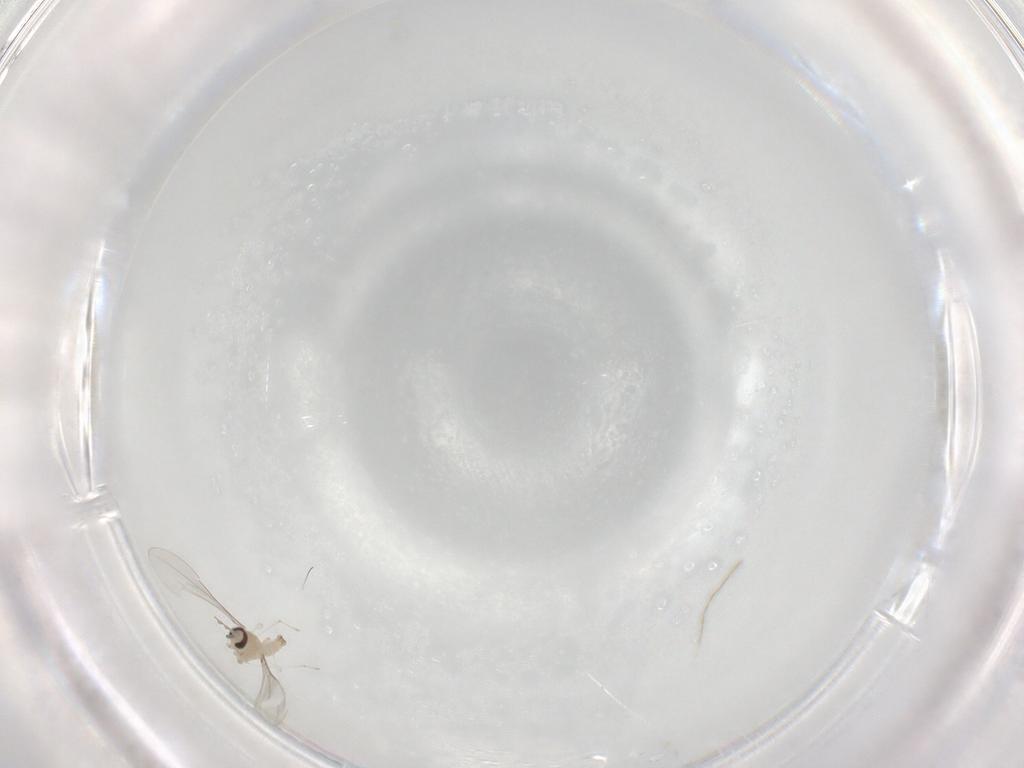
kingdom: Animalia
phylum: Arthropoda
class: Insecta
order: Diptera
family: Cecidomyiidae
